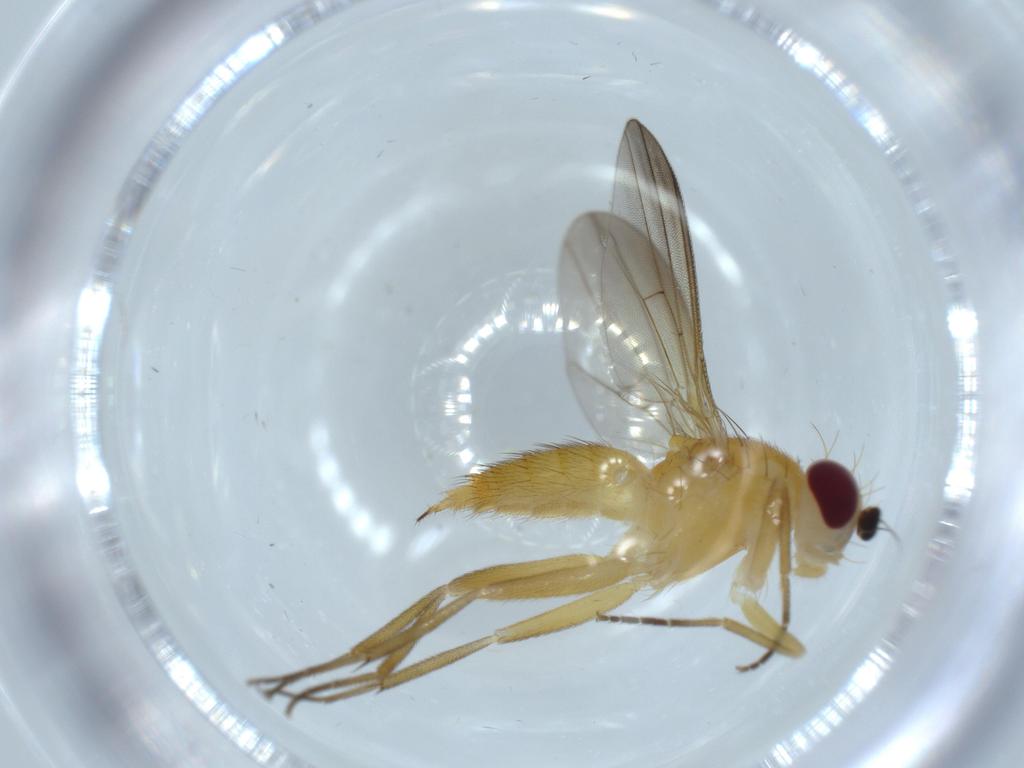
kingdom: Animalia
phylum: Arthropoda
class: Insecta
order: Diptera
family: Clusiidae
